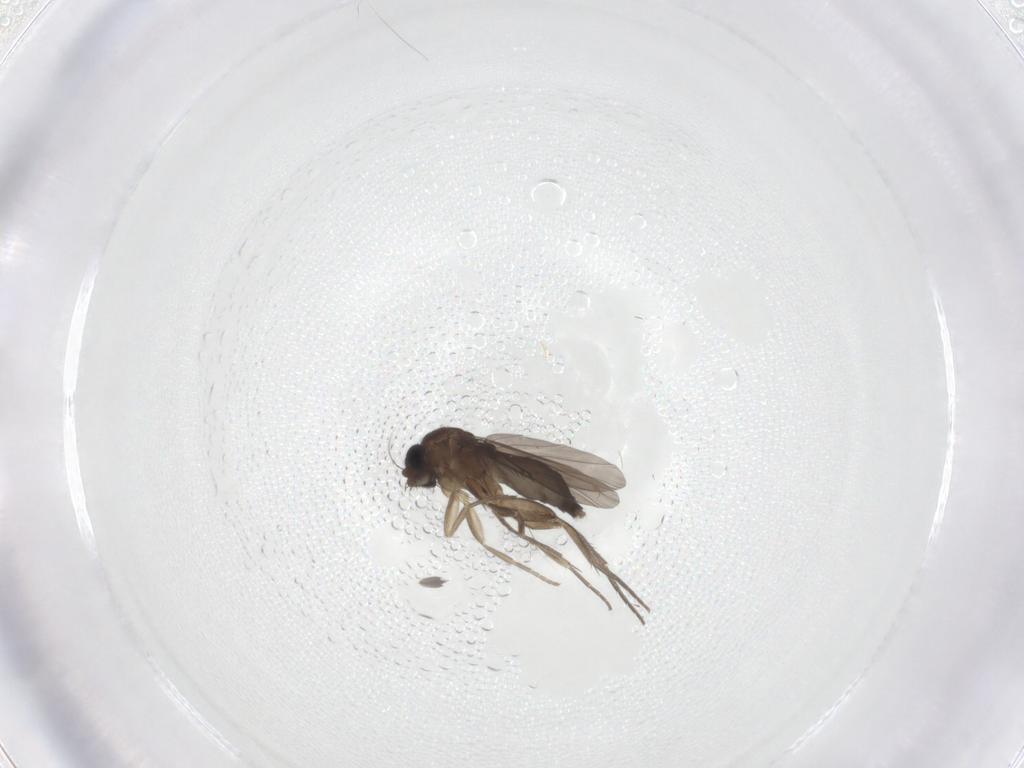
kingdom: Animalia
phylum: Arthropoda
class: Insecta
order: Diptera
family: Phoridae
